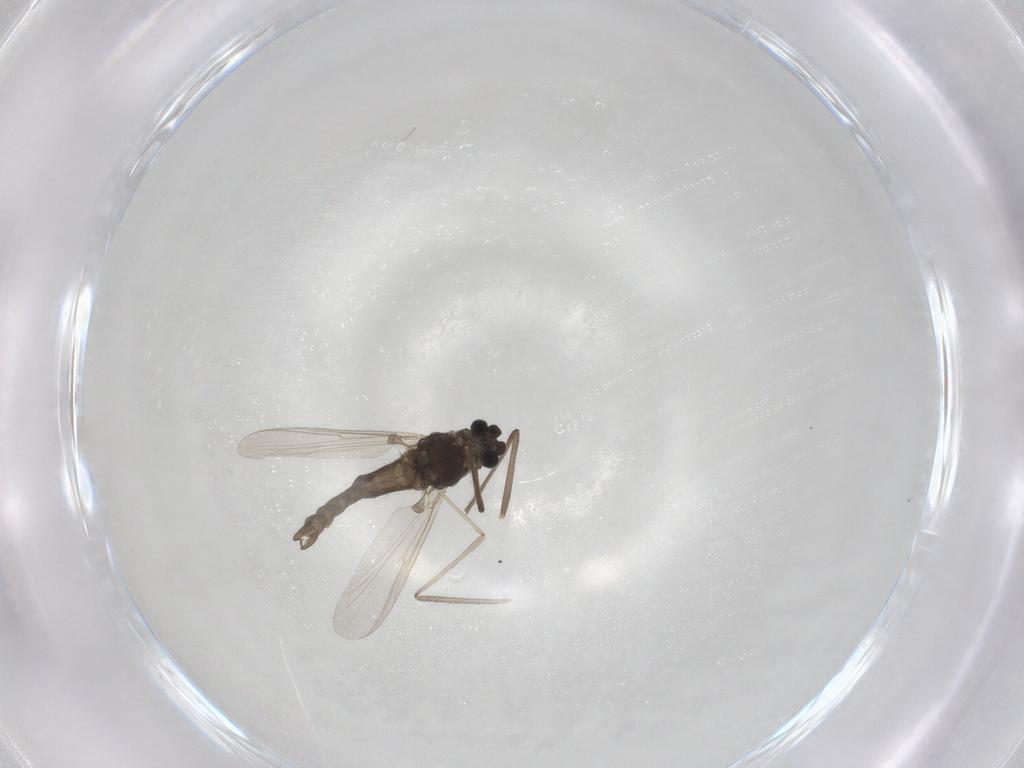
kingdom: Animalia
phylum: Arthropoda
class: Insecta
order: Diptera
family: Chironomidae
